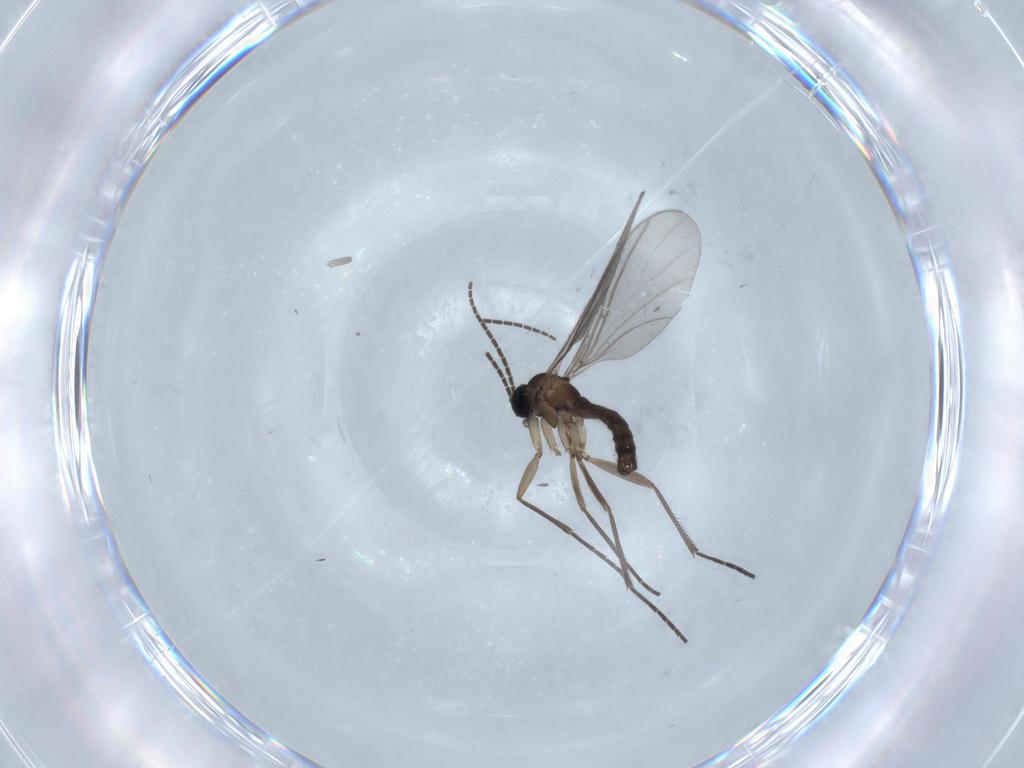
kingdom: Animalia
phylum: Arthropoda
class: Insecta
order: Diptera
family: Sciaridae
